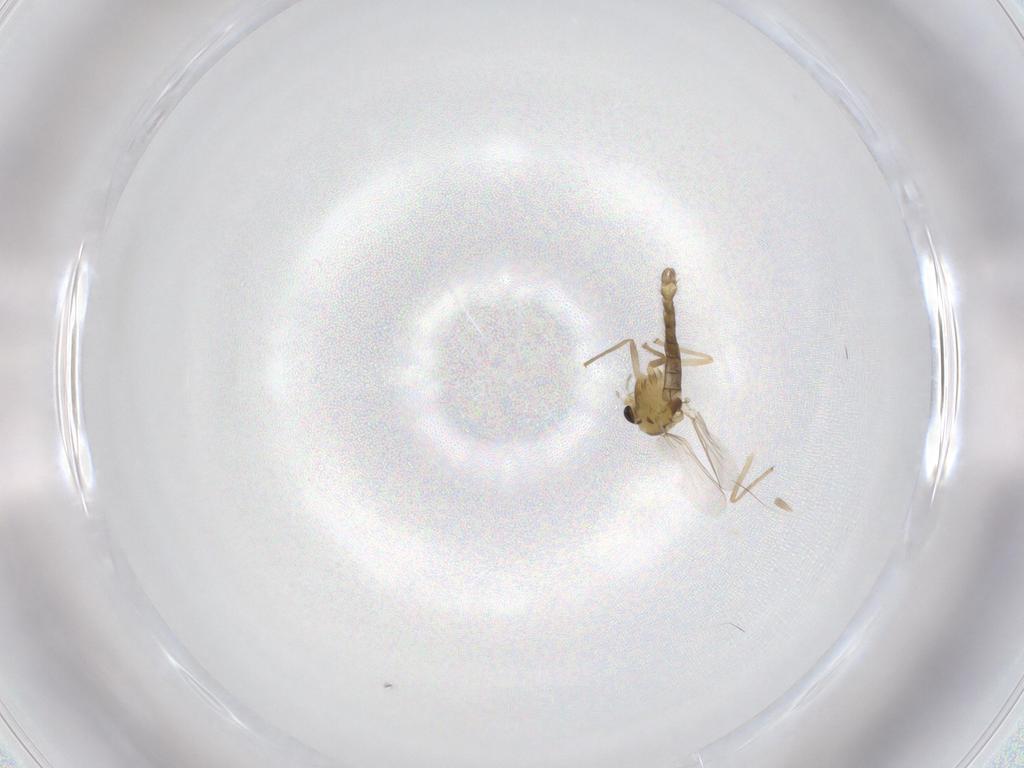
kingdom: Animalia
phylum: Arthropoda
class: Insecta
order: Diptera
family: Chironomidae
